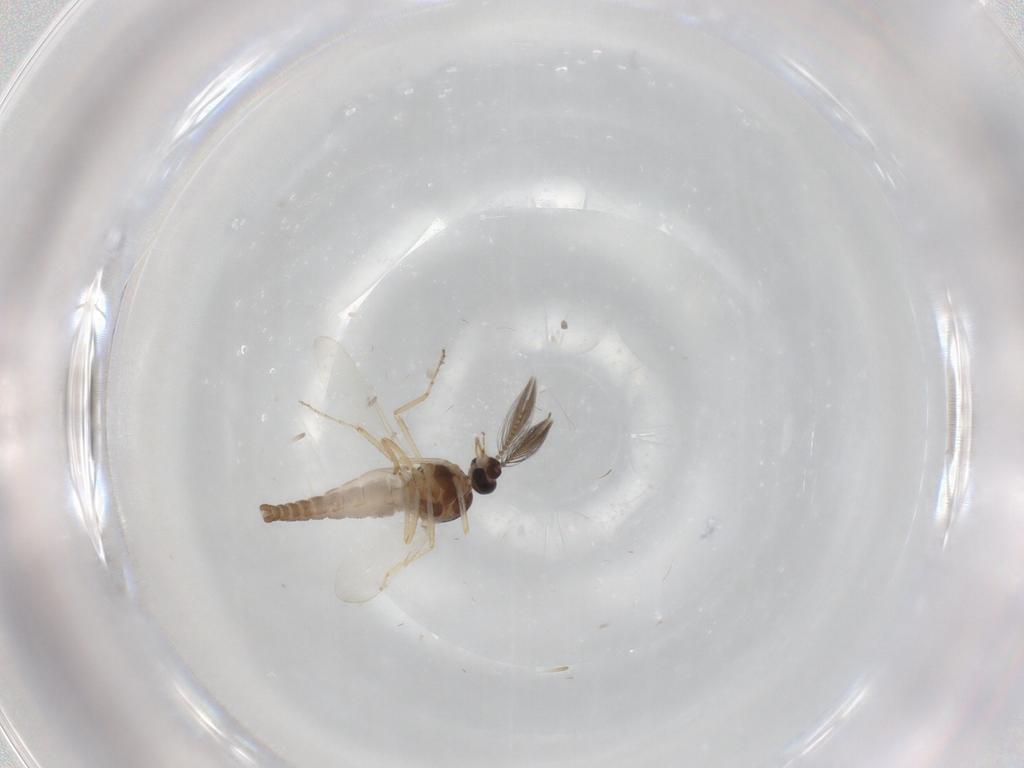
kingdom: Animalia
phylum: Arthropoda
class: Insecta
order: Diptera
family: Ceratopogonidae
